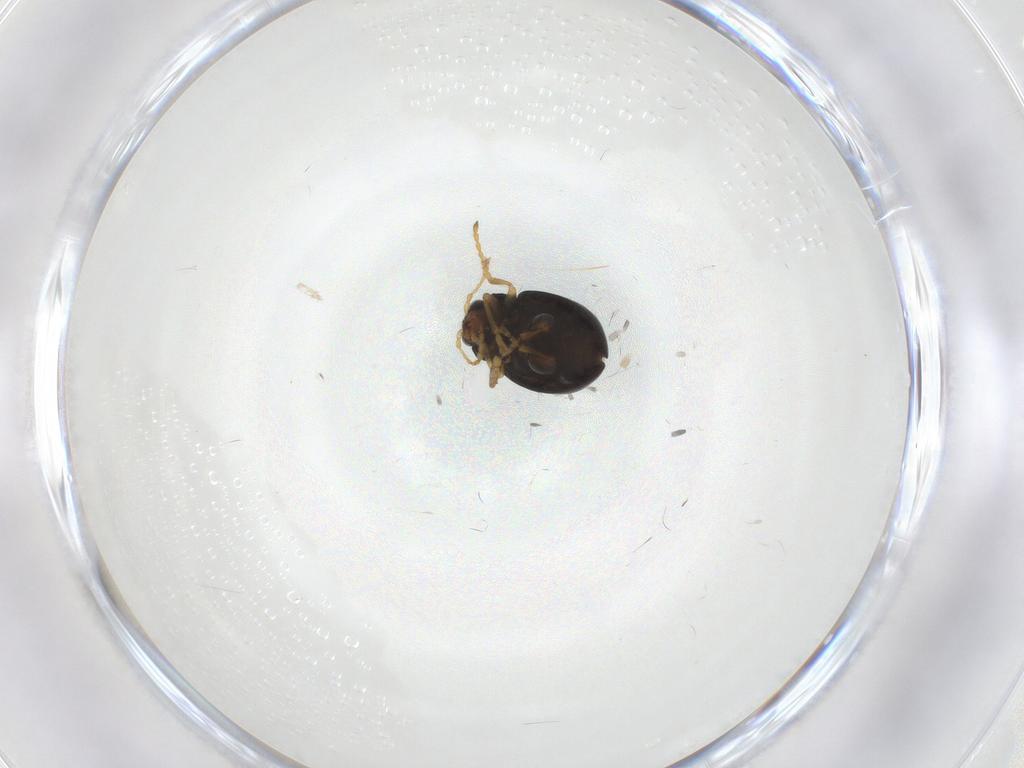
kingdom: Animalia
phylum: Arthropoda
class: Insecta
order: Coleoptera
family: Chrysomelidae
